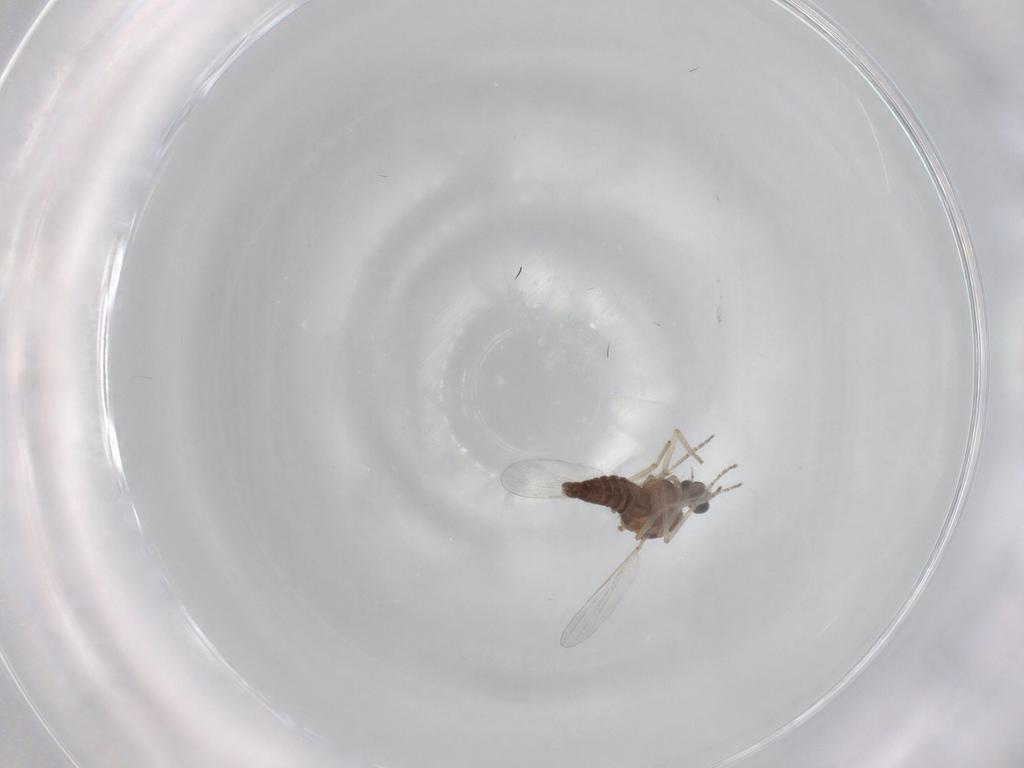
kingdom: Animalia
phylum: Arthropoda
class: Insecta
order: Diptera
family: Ceratopogonidae
